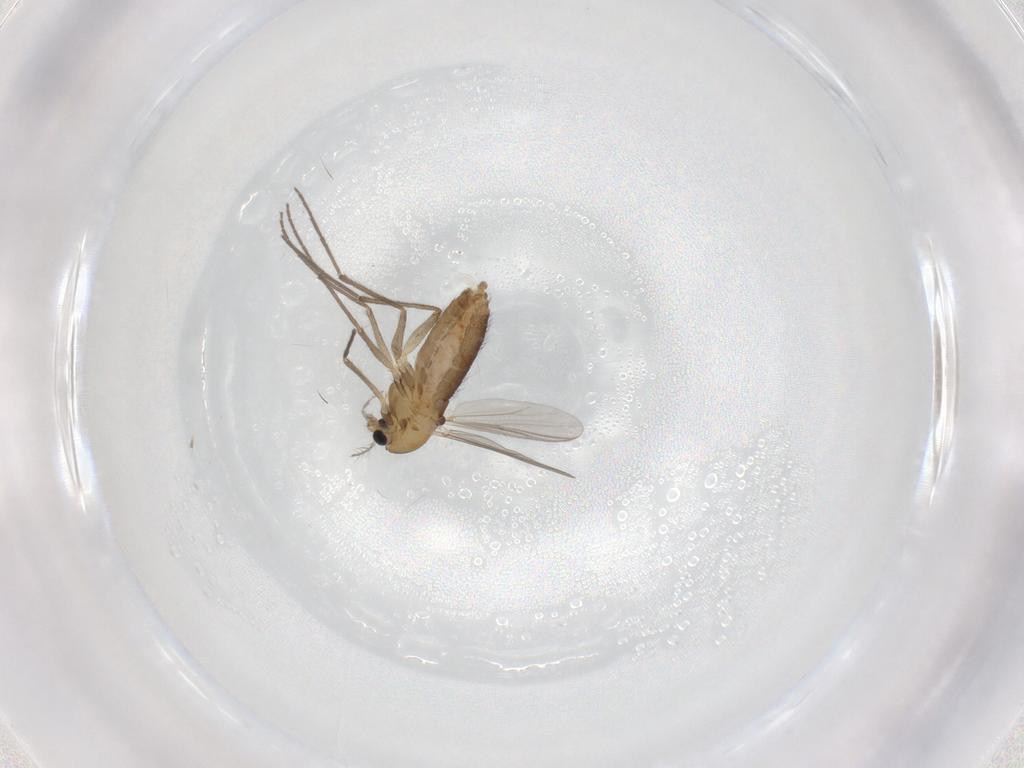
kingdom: Animalia
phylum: Arthropoda
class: Insecta
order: Diptera
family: Chironomidae
